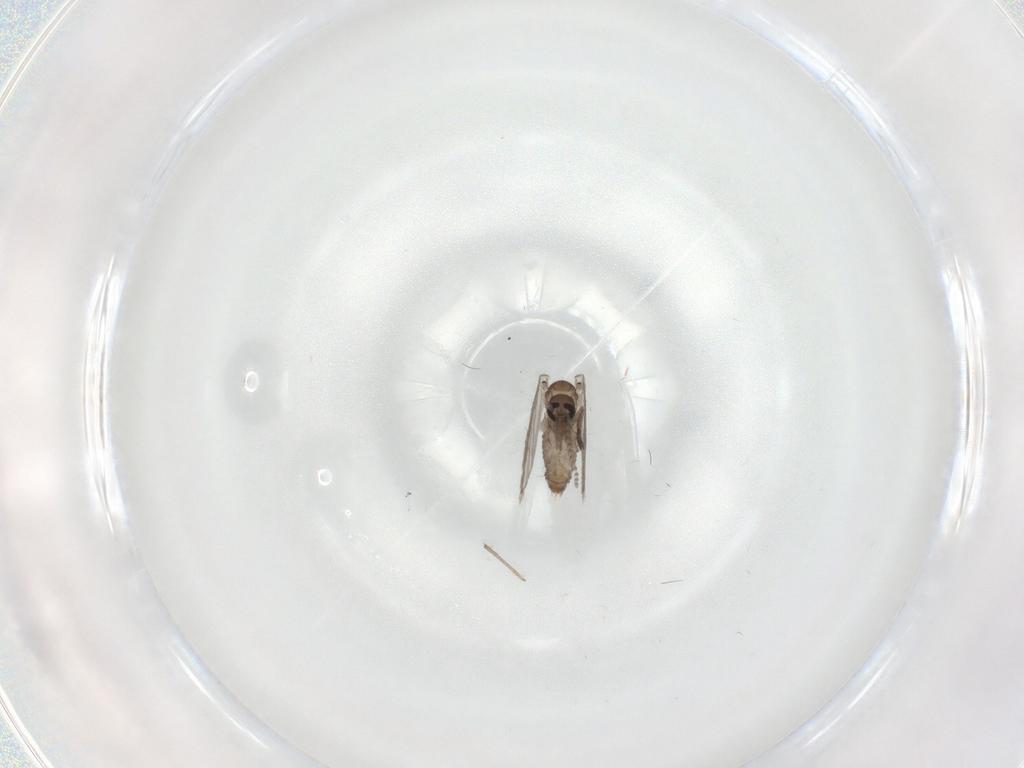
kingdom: Animalia
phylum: Arthropoda
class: Insecta
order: Diptera
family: Psychodidae
